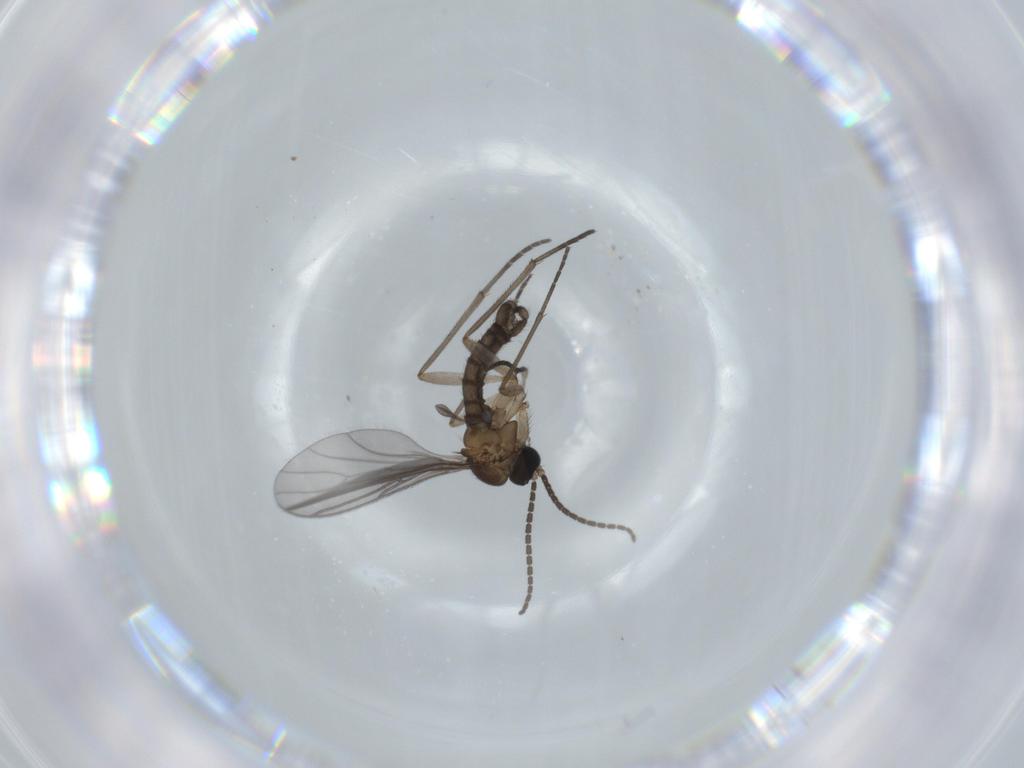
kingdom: Animalia
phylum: Arthropoda
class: Insecta
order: Diptera
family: Sciaridae
